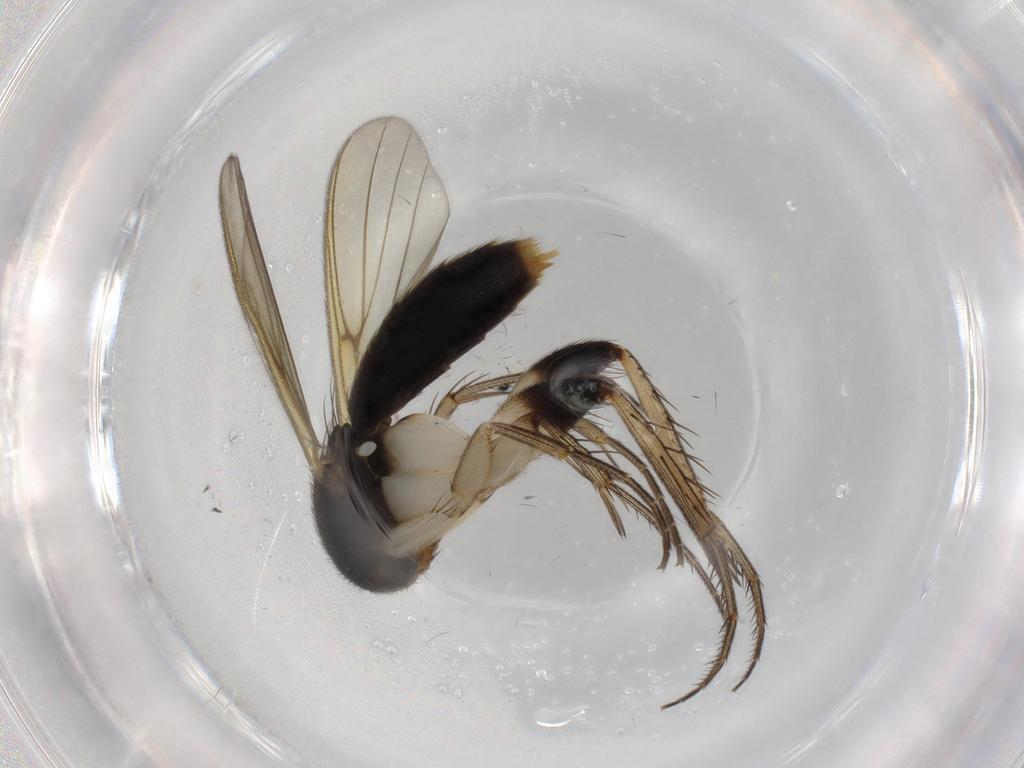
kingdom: Animalia
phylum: Arthropoda
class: Insecta
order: Diptera
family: Mycetophilidae
